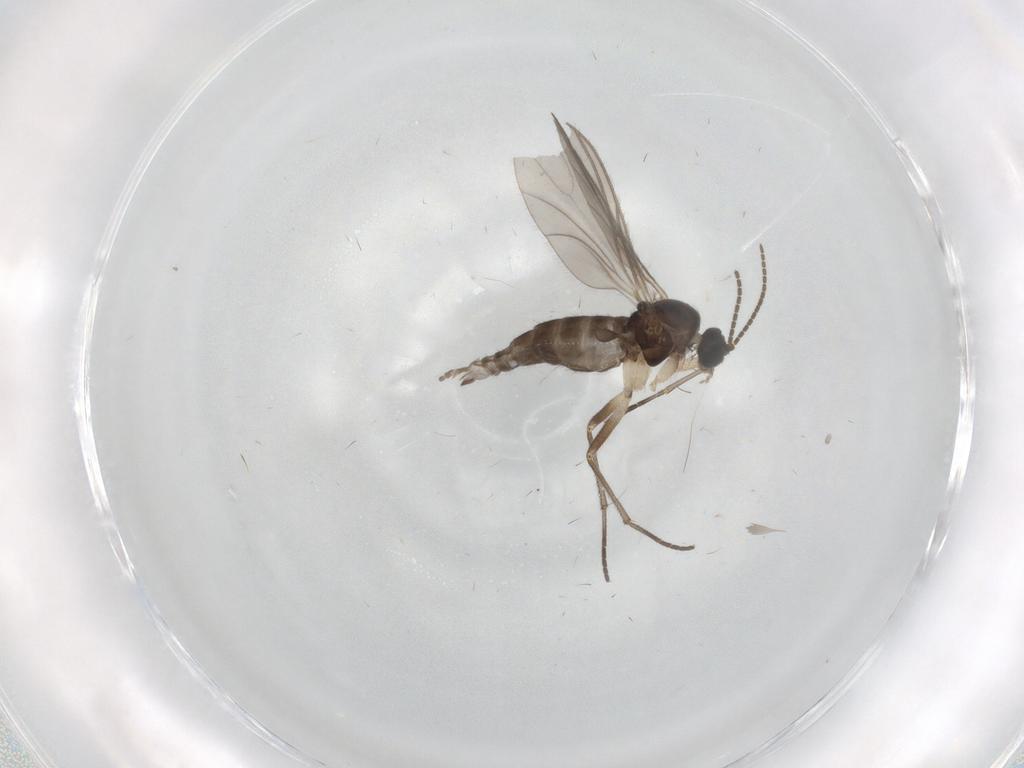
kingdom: Animalia
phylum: Arthropoda
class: Insecta
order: Diptera
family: Sciaridae
